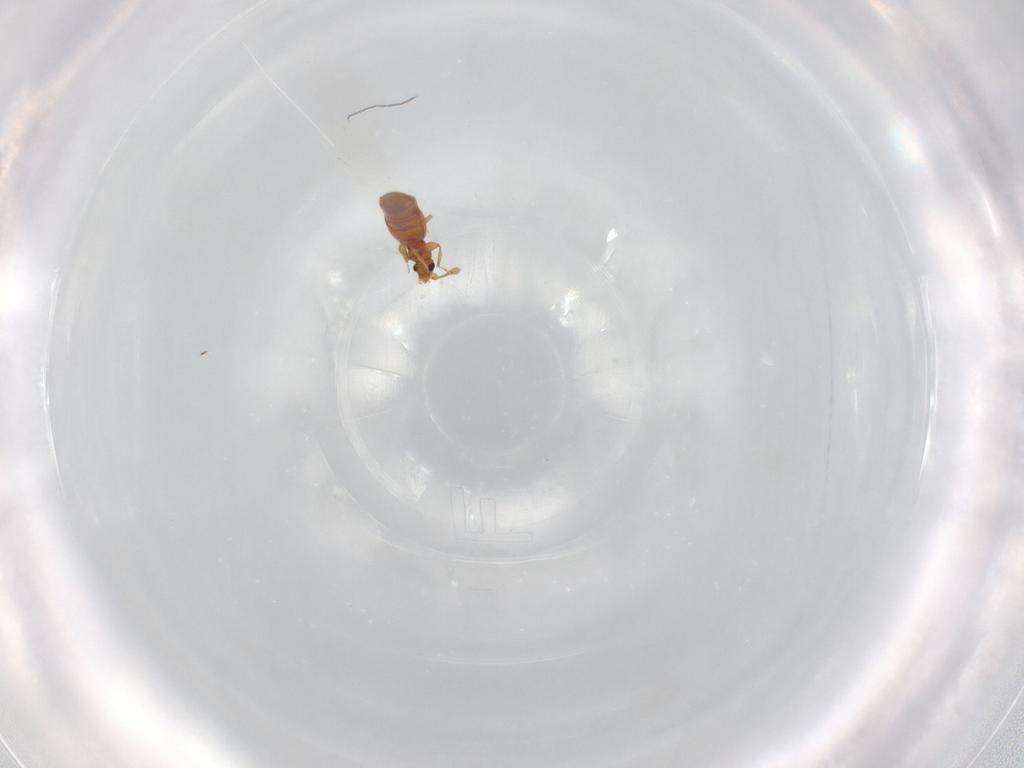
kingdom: Animalia
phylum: Arthropoda
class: Insecta
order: Coleoptera
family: Staphylinidae
